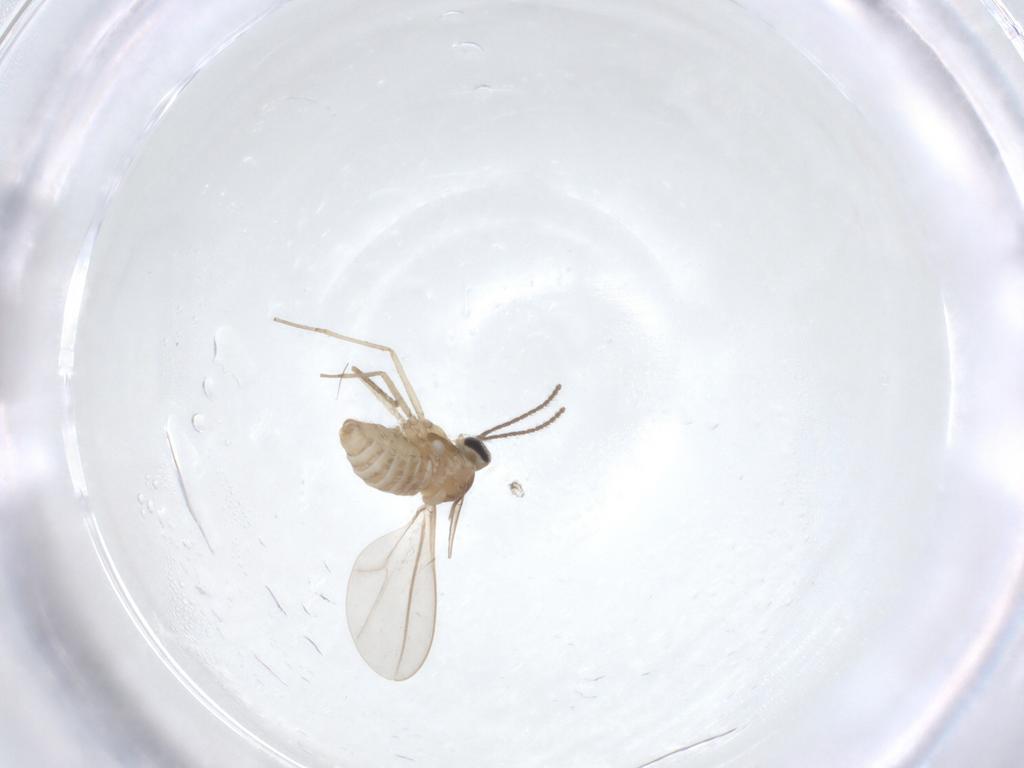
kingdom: Animalia
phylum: Arthropoda
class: Insecta
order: Diptera
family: Cecidomyiidae
